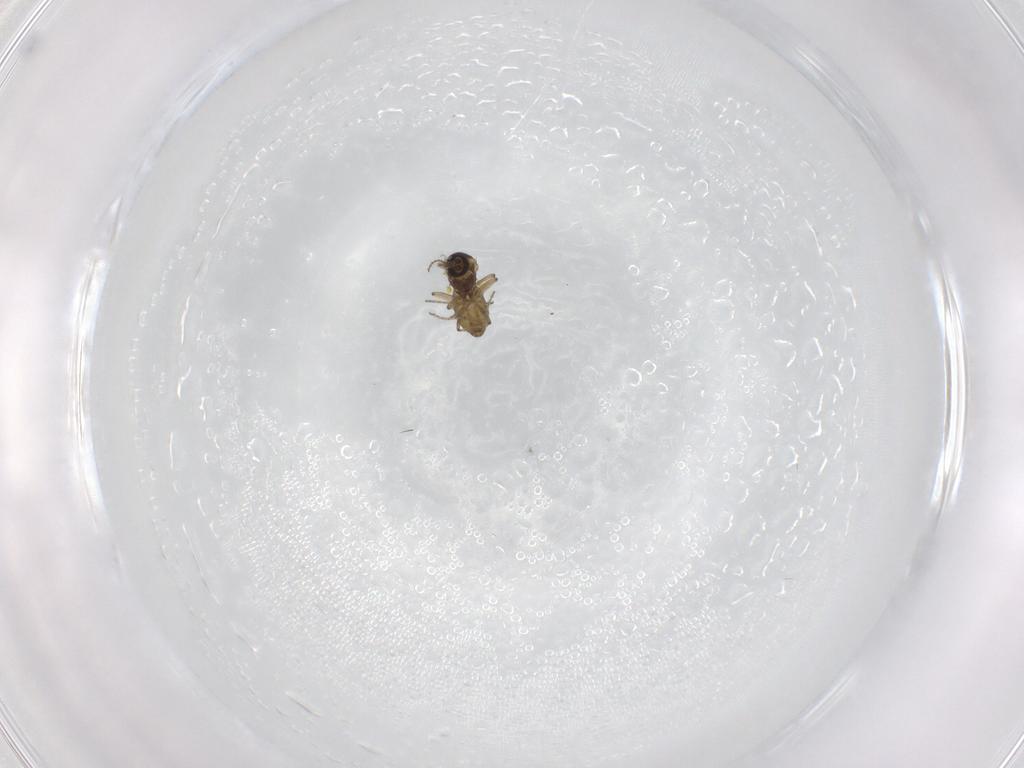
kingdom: Animalia
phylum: Arthropoda
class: Insecta
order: Diptera
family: Ceratopogonidae
